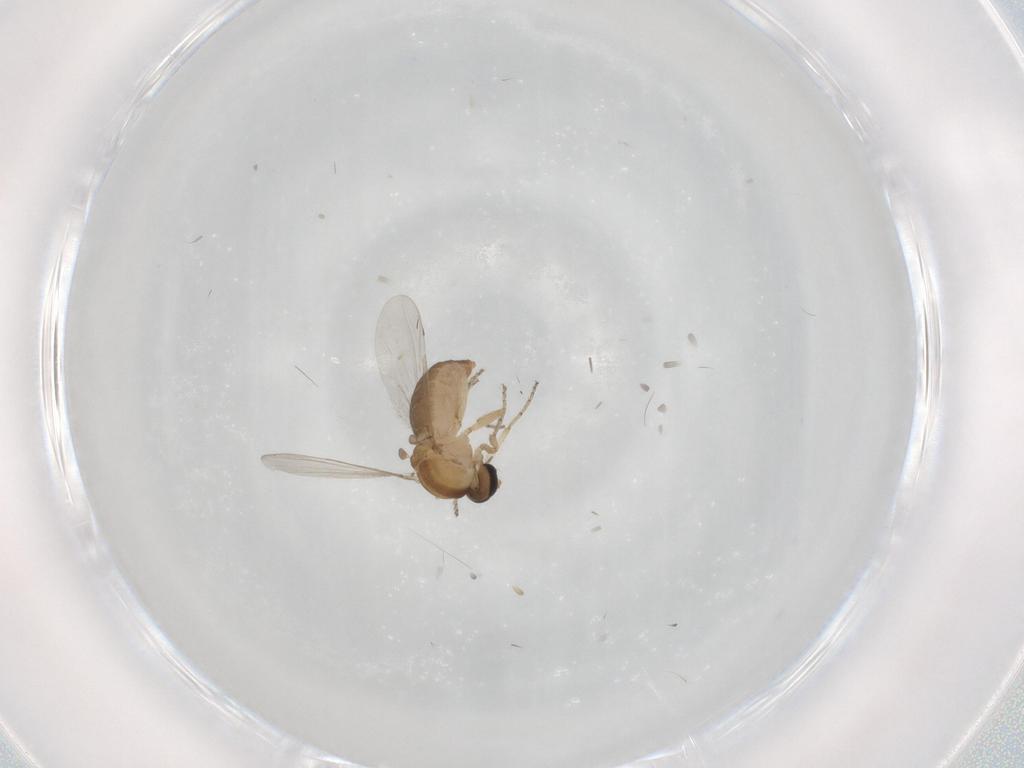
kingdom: Animalia
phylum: Arthropoda
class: Insecta
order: Diptera
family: Ceratopogonidae
